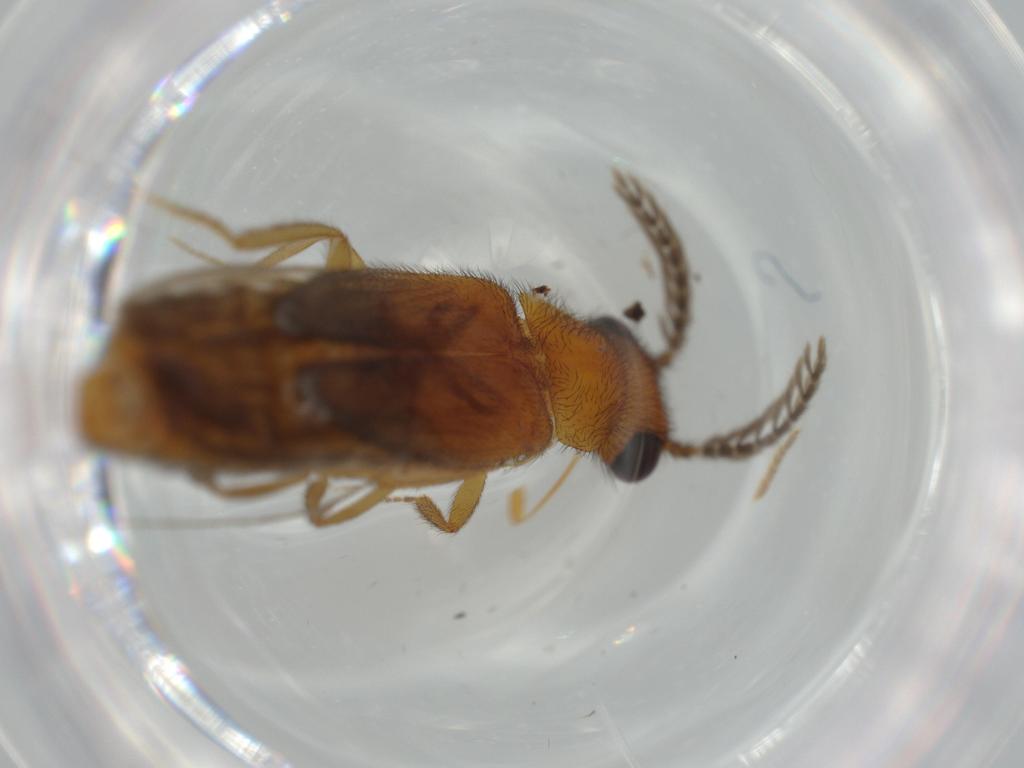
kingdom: Animalia
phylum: Arthropoda
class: Insecta
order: Coleoptera
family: Phengodidae
